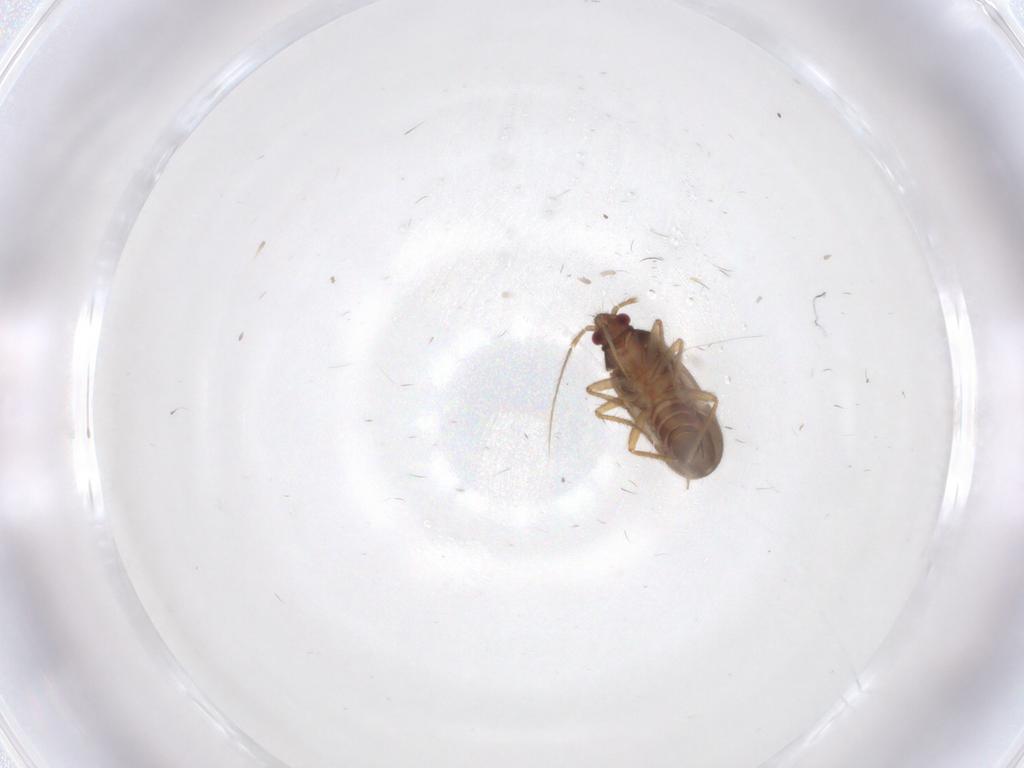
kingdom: Animalia
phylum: Arthropoda
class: Insecta
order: Hemiptera
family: Ceratocombidae
